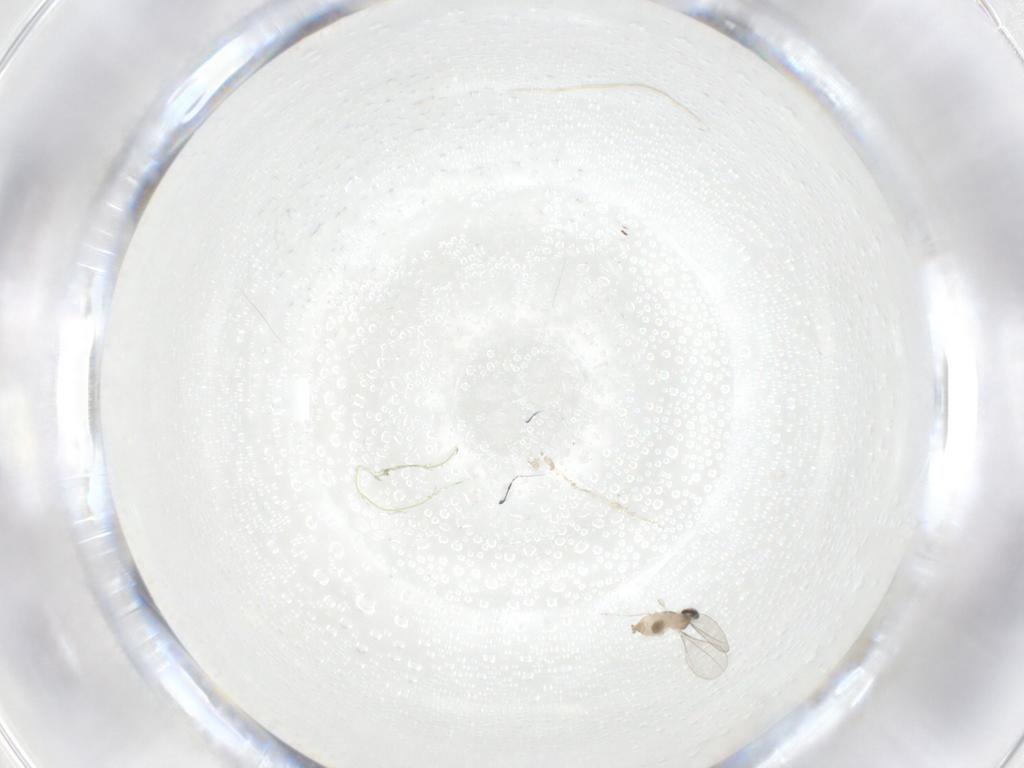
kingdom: Animalia
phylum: Arthropoda
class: Insecta
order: Diptera
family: Cecidomyiidae
